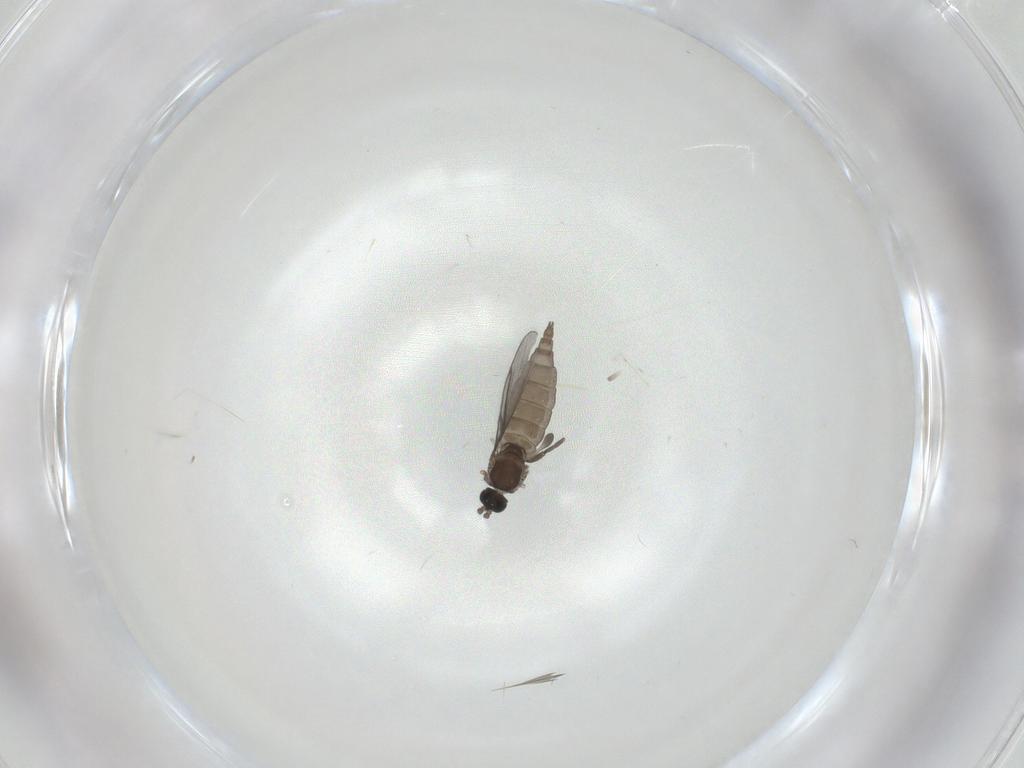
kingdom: Animalia
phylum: Arthropoda
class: Insecta
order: Diptera
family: Sciaridae
